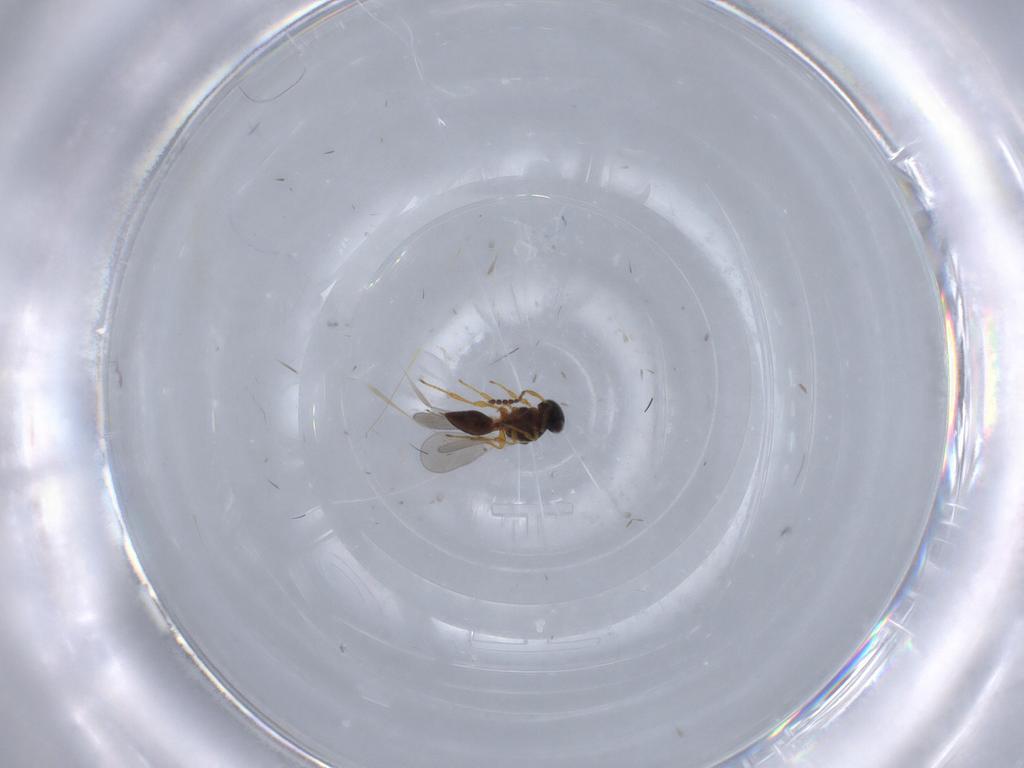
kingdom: Animalia
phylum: Arthropoda
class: Insecta
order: Hymenoptera
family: Platygastridae
